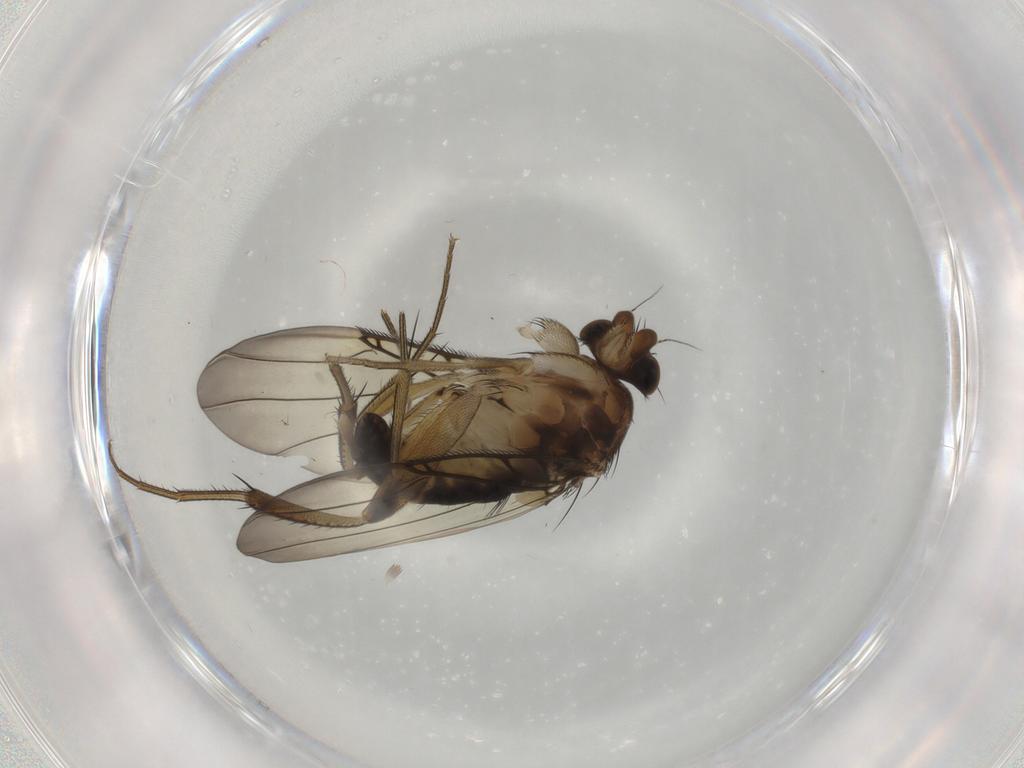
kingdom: Animalia
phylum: Arthropoda
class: Insecta
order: Diptera
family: Phoridae
